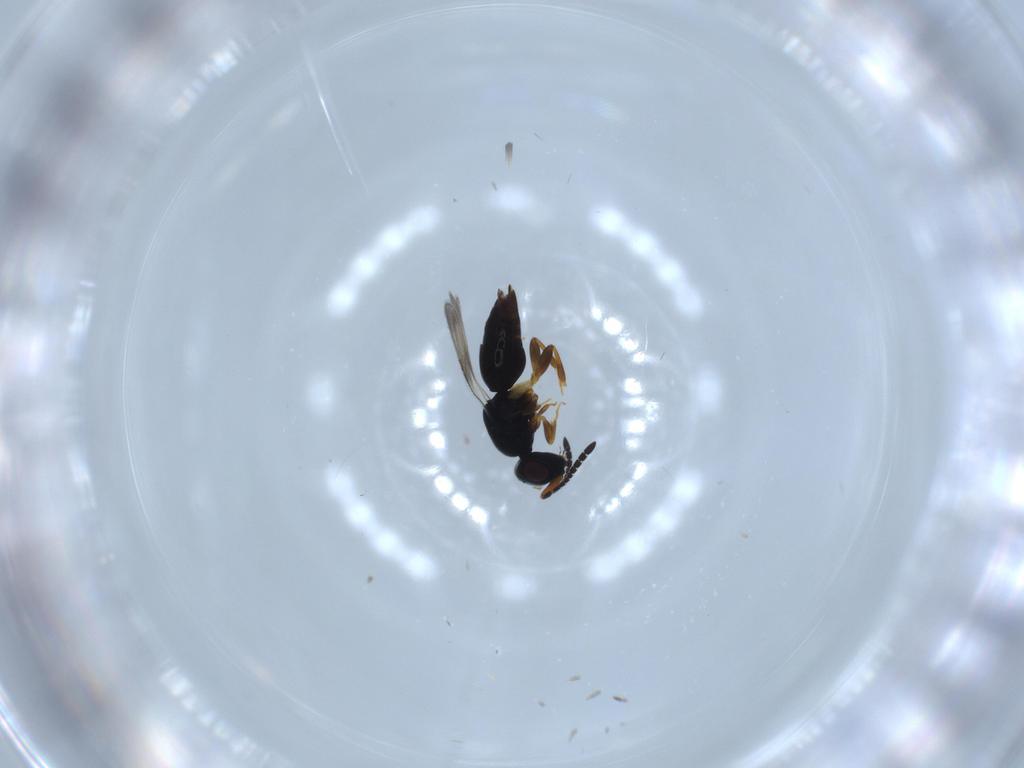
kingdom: Animalia
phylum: Arthropoda
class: Insecta
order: Hymenoptera
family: Ceraphronidae
